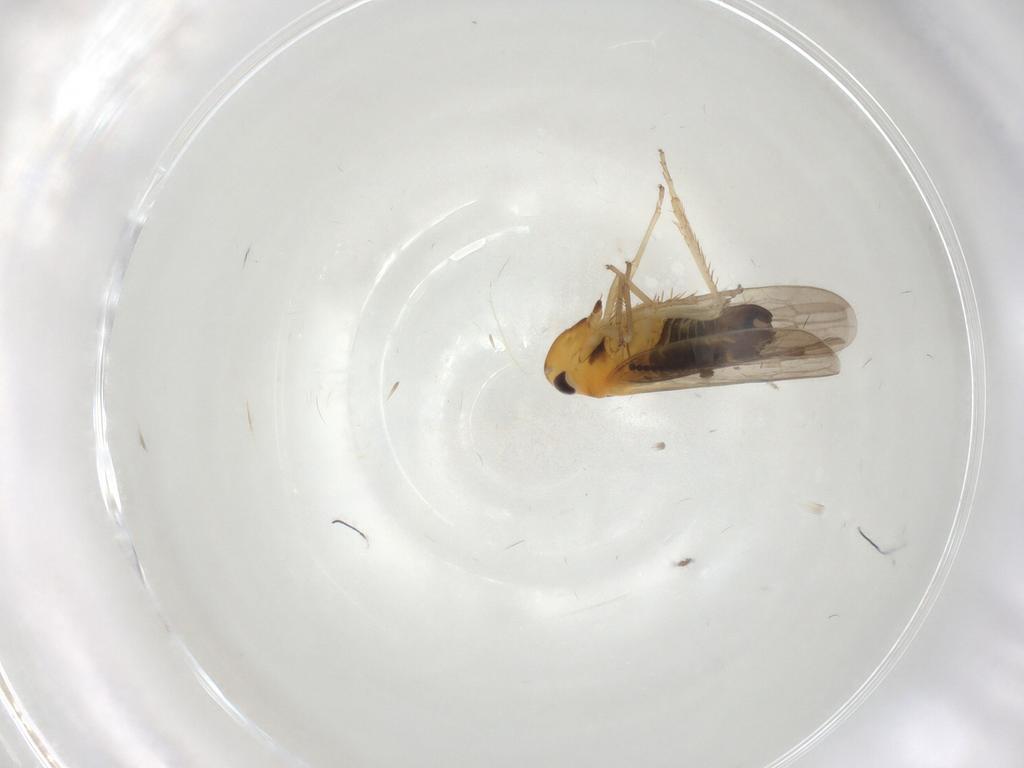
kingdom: Animalia
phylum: Arthropoda
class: Insecta
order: Hemiptera
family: Cicadellidae
